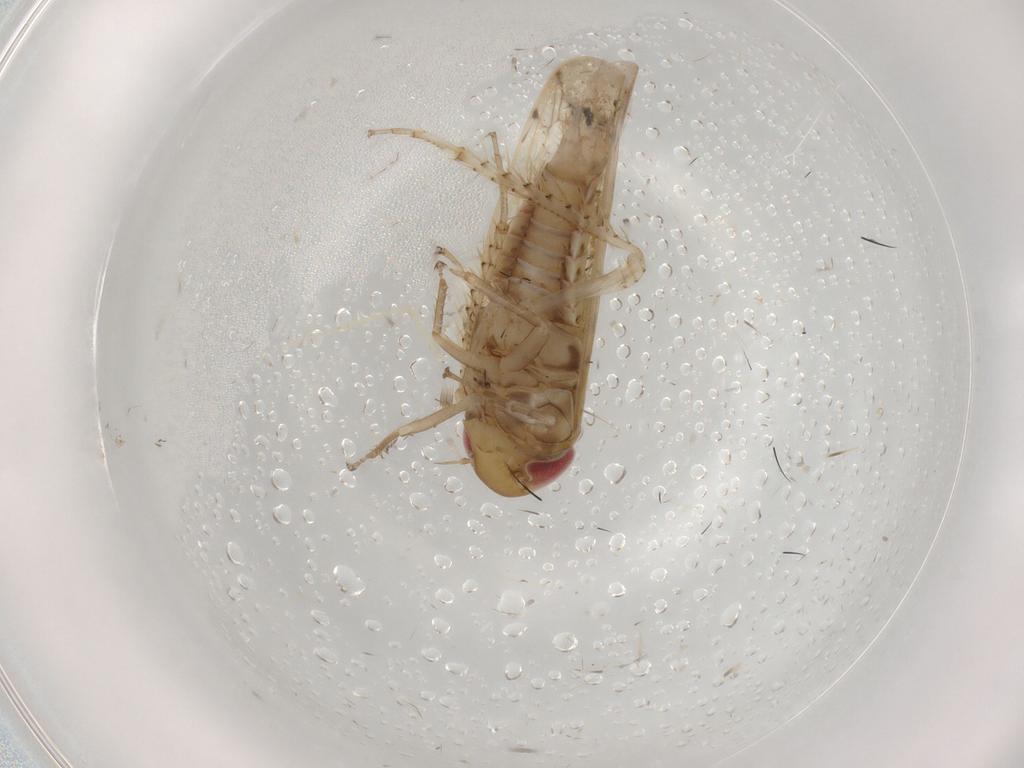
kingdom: Animalia
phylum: Arthropoda
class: Insecta
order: Hemiptera
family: Cicadellidae
